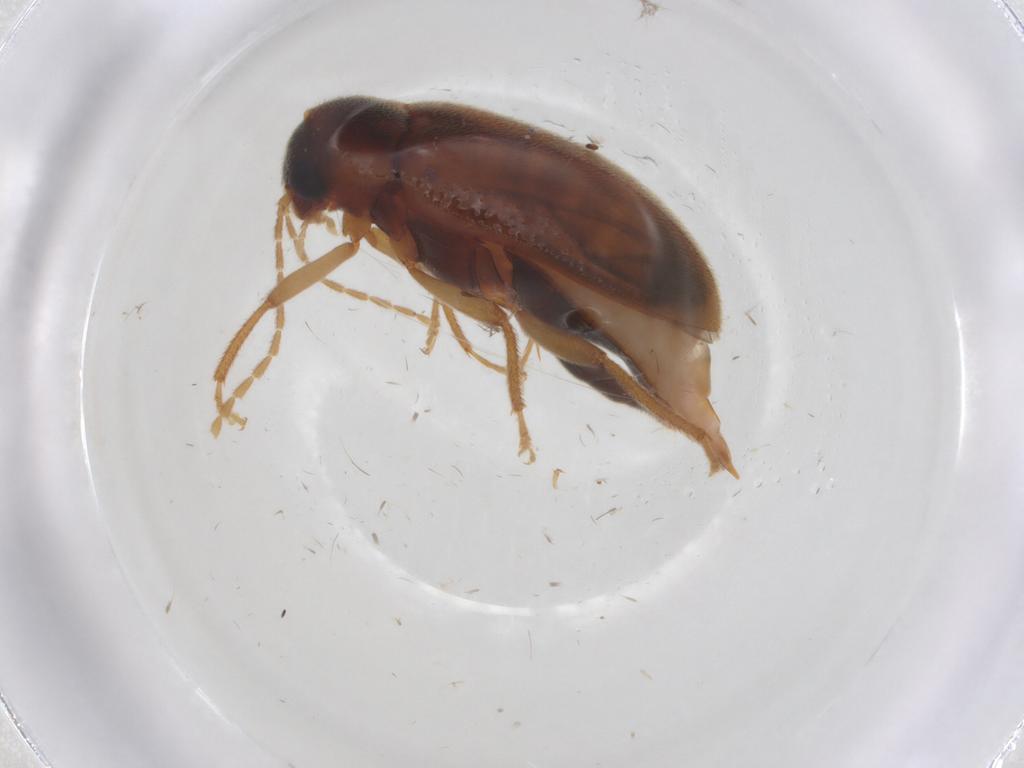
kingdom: Animalia
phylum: Arthropoda
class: Insecta
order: Coleoptera
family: Ptilodactylidae
